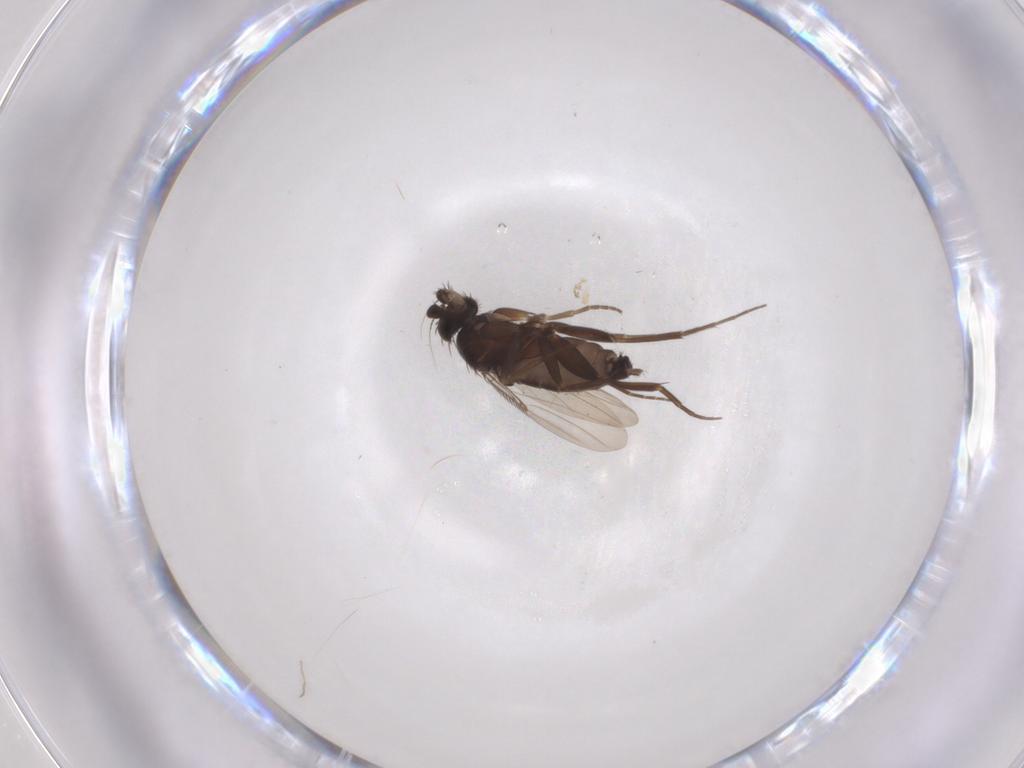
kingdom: Animalia
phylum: Arthropoda
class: Insecta
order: Diptera
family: Phoridae
